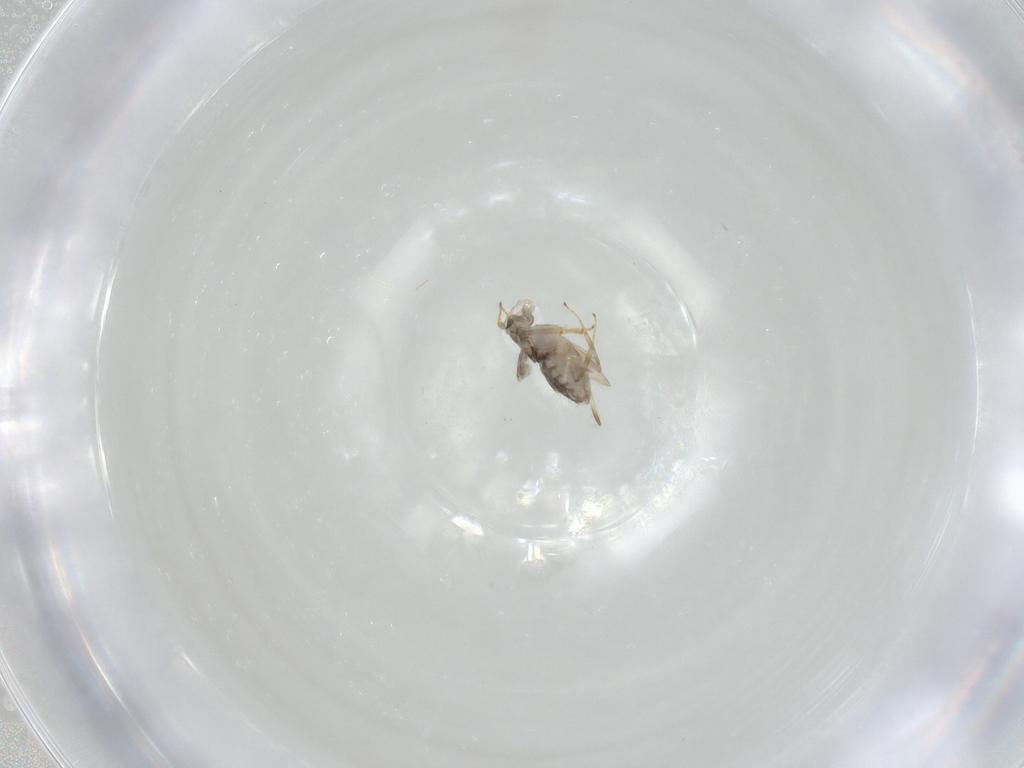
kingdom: Animalia
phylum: Arthropoda
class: Insecta
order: Hymenoptera
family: Encyrtidae
